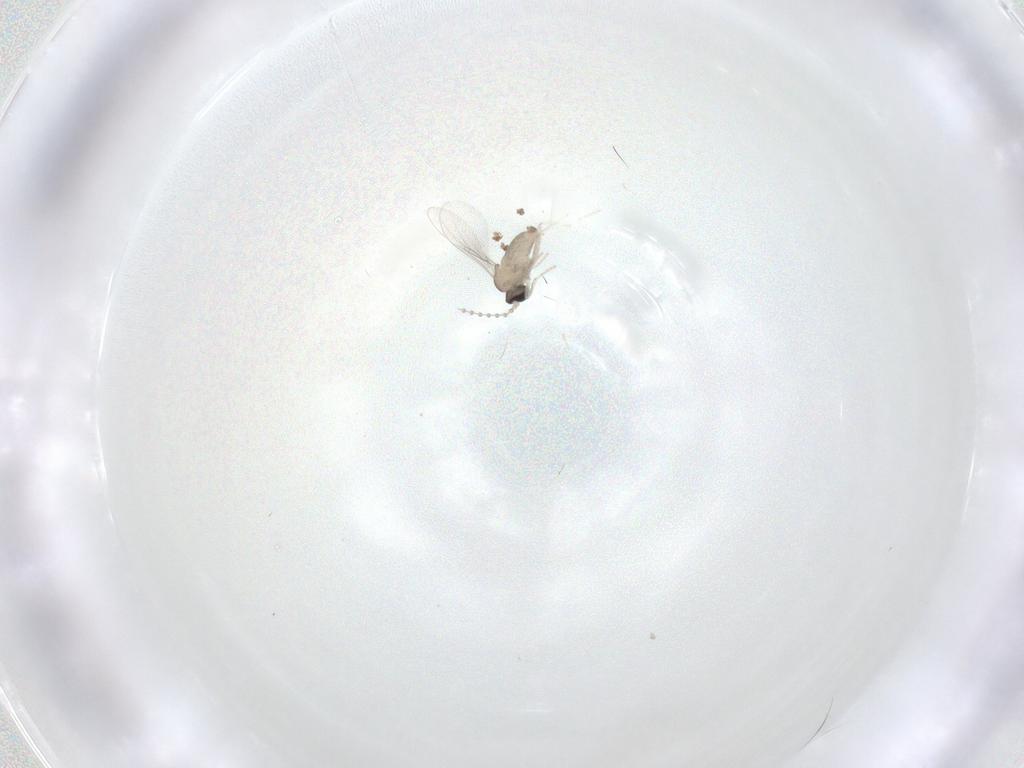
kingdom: Animalia
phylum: Arthropoda
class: Insecta
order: Diptera
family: Cecidomyiidae
